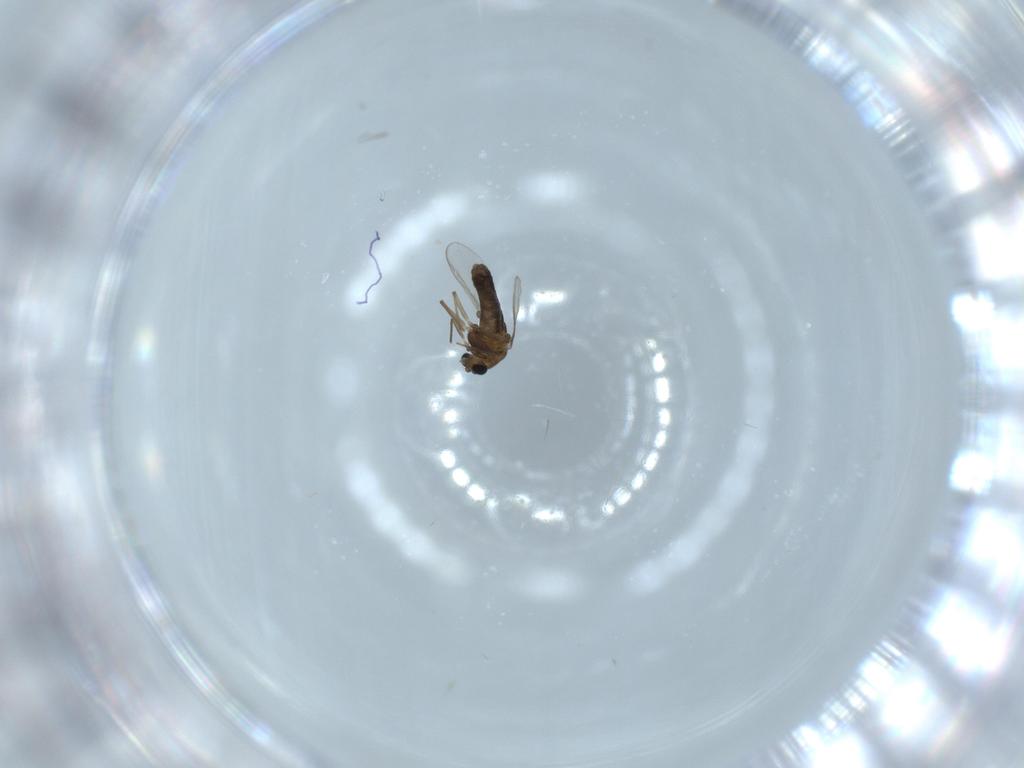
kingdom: Animalia
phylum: Arthropoda
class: Insecta
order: Diptera
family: Chironomidae
